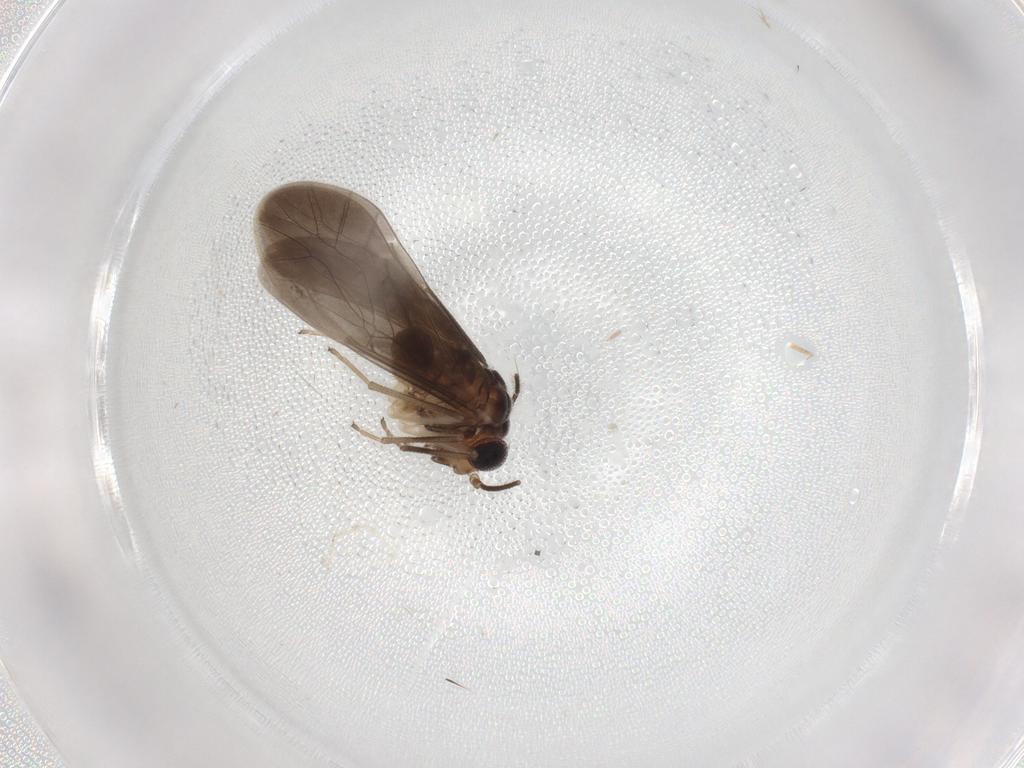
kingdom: Animalia
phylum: Arthropoda
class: Insecta
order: Psocodea
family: Caeciliusidae
